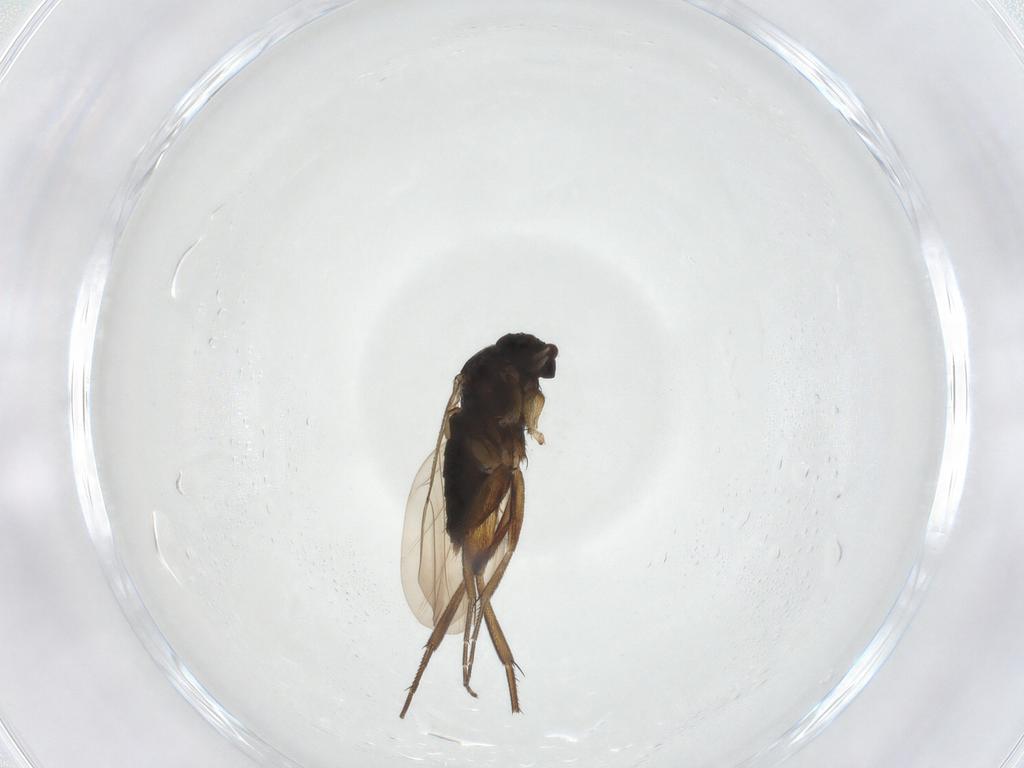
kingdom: Animalia
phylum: Arthropoda
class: Insecta
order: Diptera
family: Phoridae
